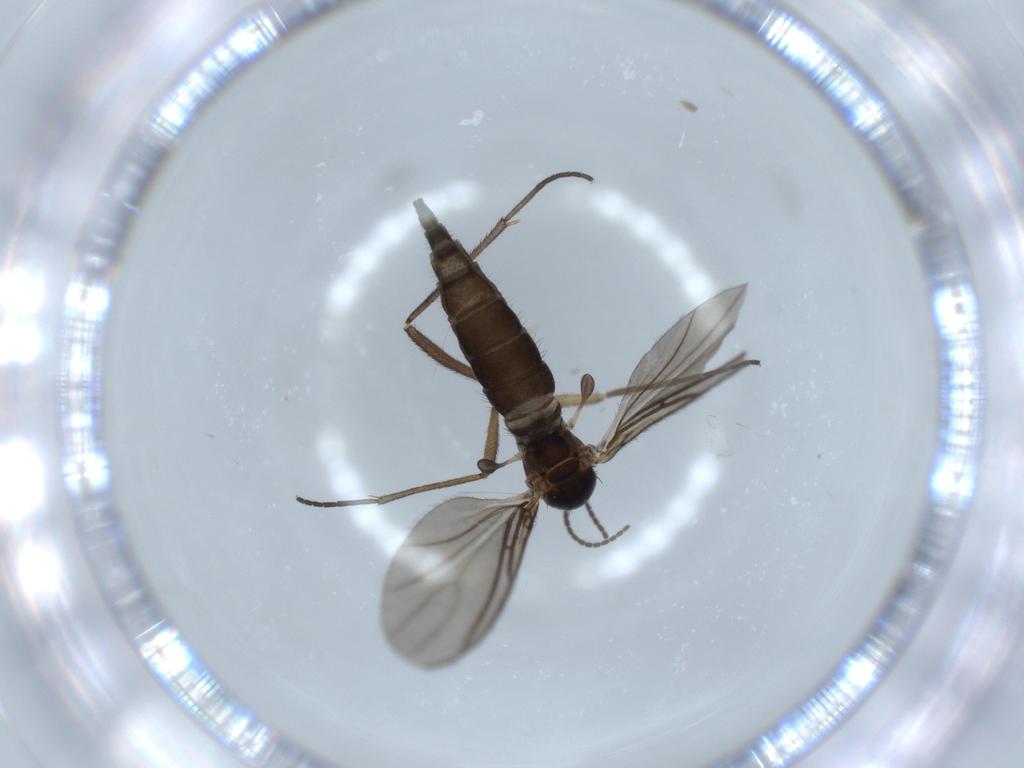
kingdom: Animalia
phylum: Arthropoda
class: Insecta
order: Diptera
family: Sciaridae
